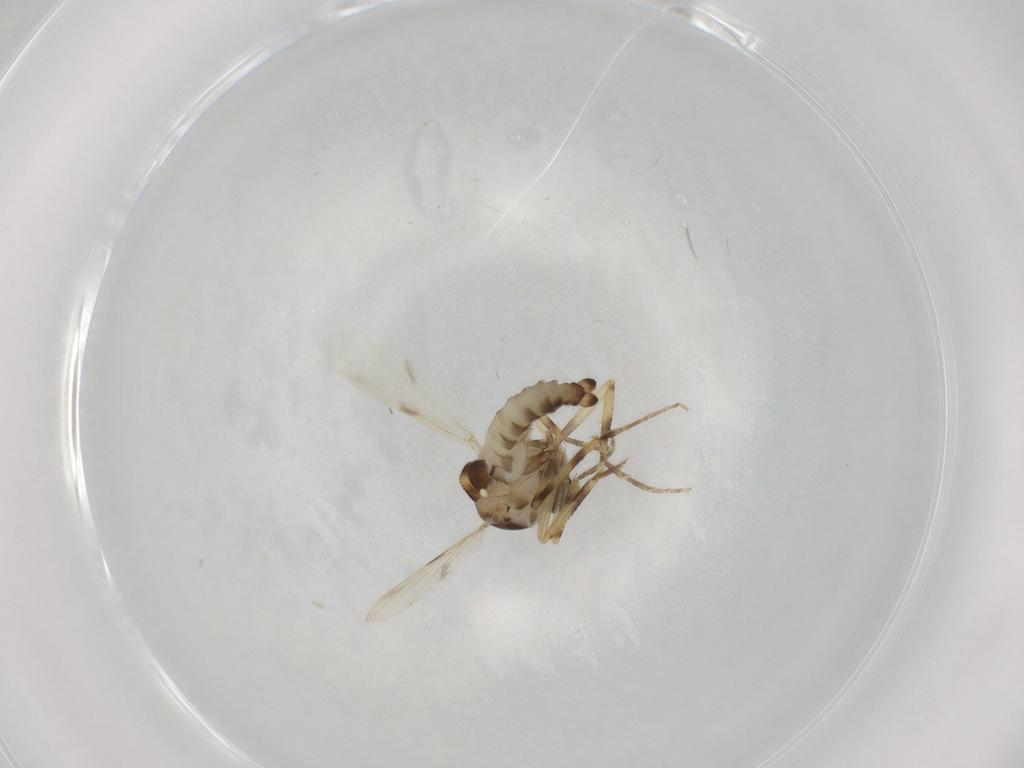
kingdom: Animalia
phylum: Arthropoda
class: Insecta
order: Diptera
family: Ceratopogonidae
